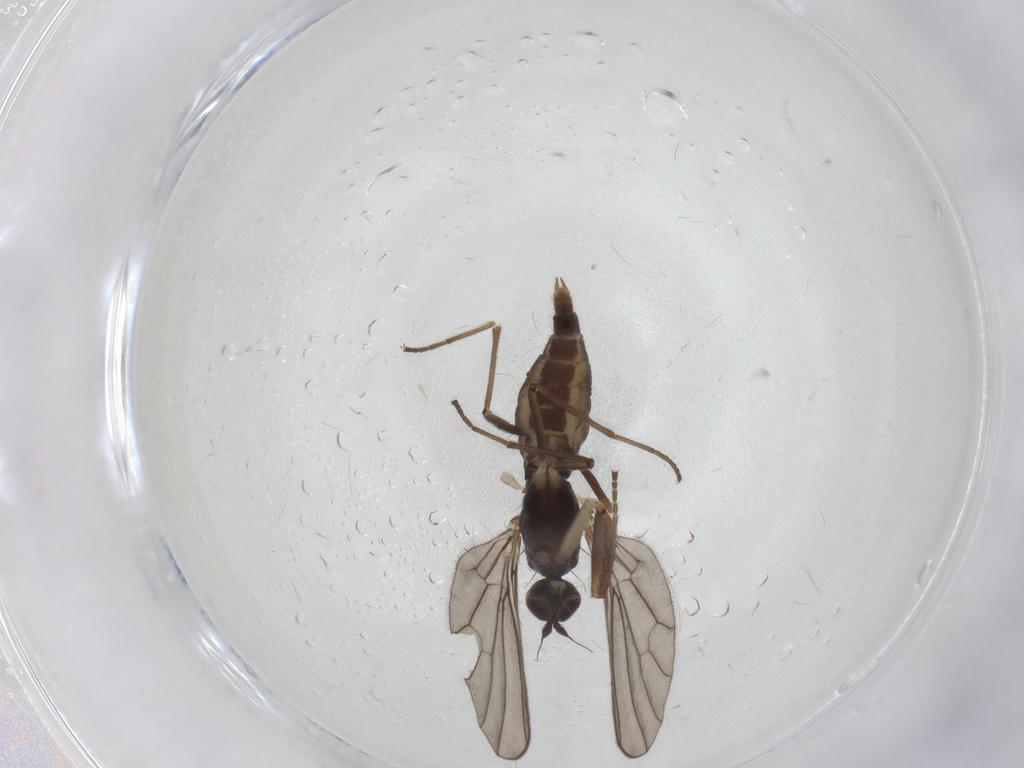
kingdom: Animalia
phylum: Arthropoda
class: Insecta
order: Diptera
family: Empididae
